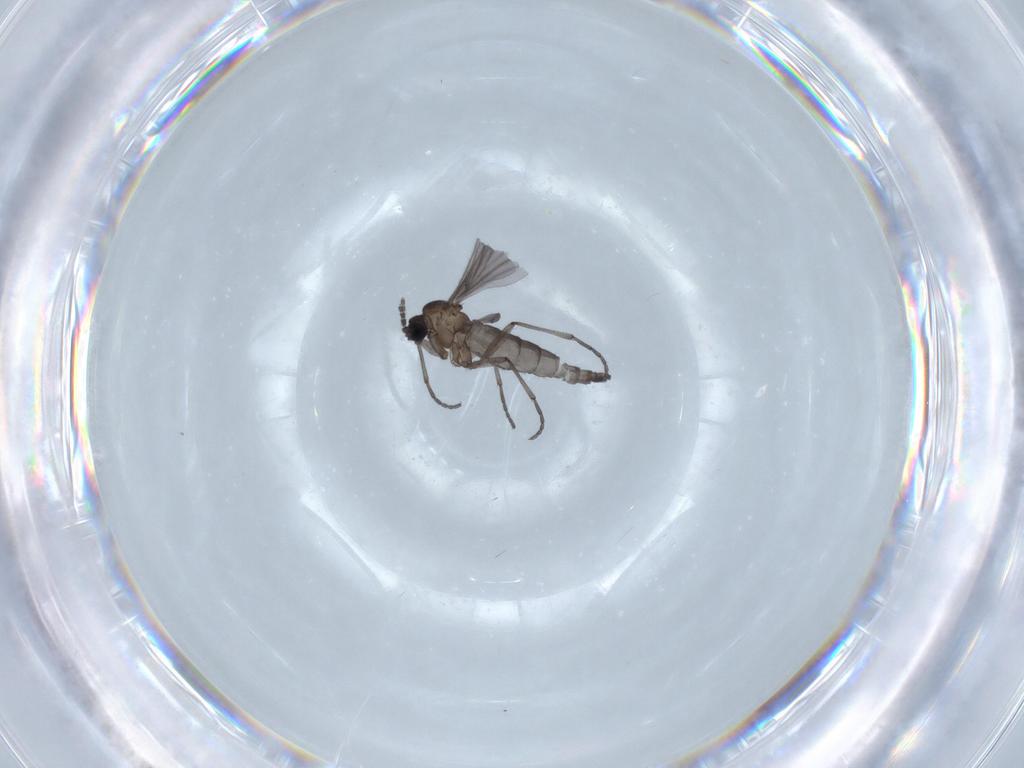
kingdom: Animalia
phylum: Arthropoda
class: Insecta
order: Diptera
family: Sciaridae
